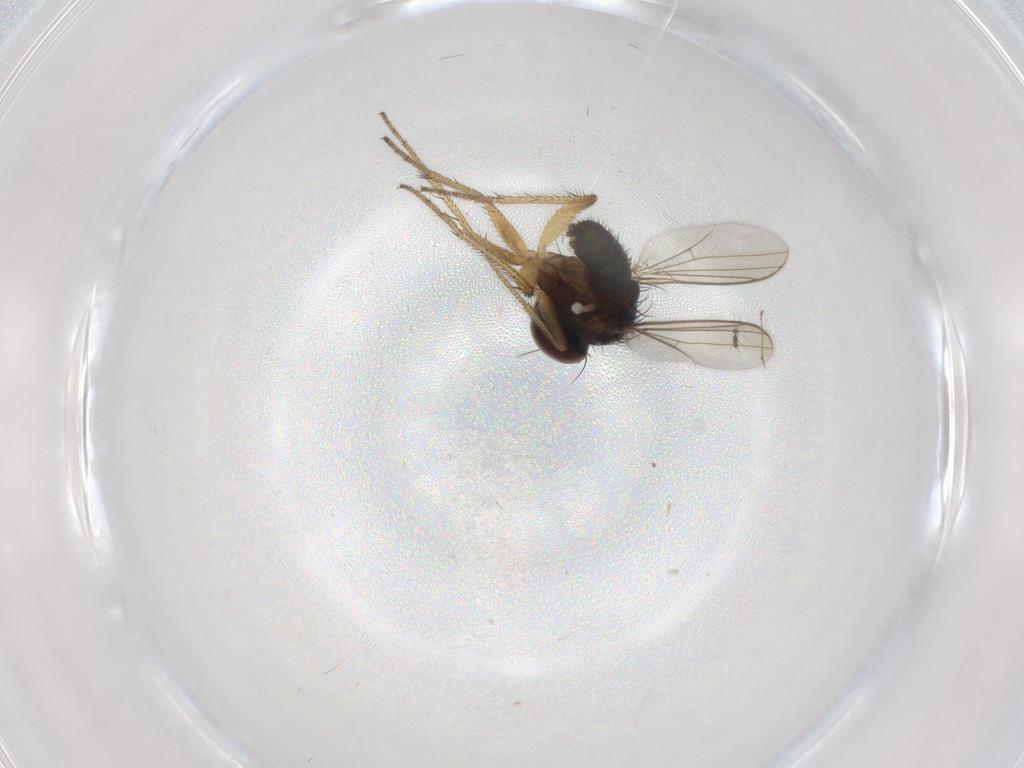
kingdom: Animalia
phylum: Arthropoda
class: Insecta
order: Diptera
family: Dolichopodidae
